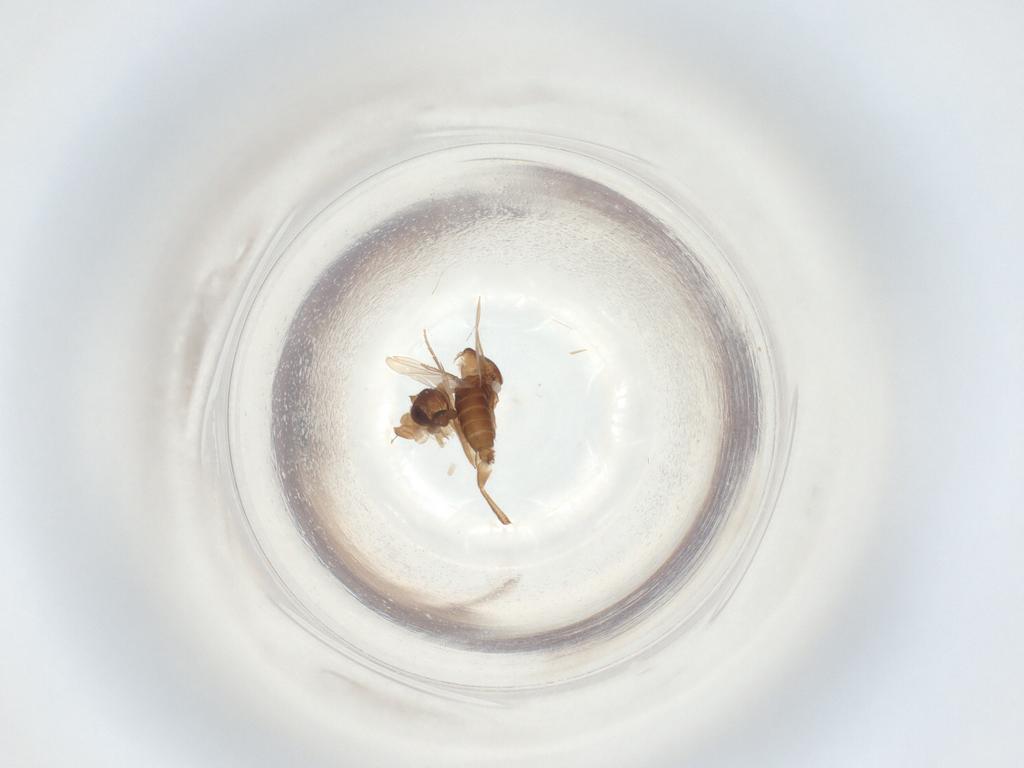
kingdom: Animalia
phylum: Arthropoda
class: Insecta
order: Diptera
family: Phoridae
